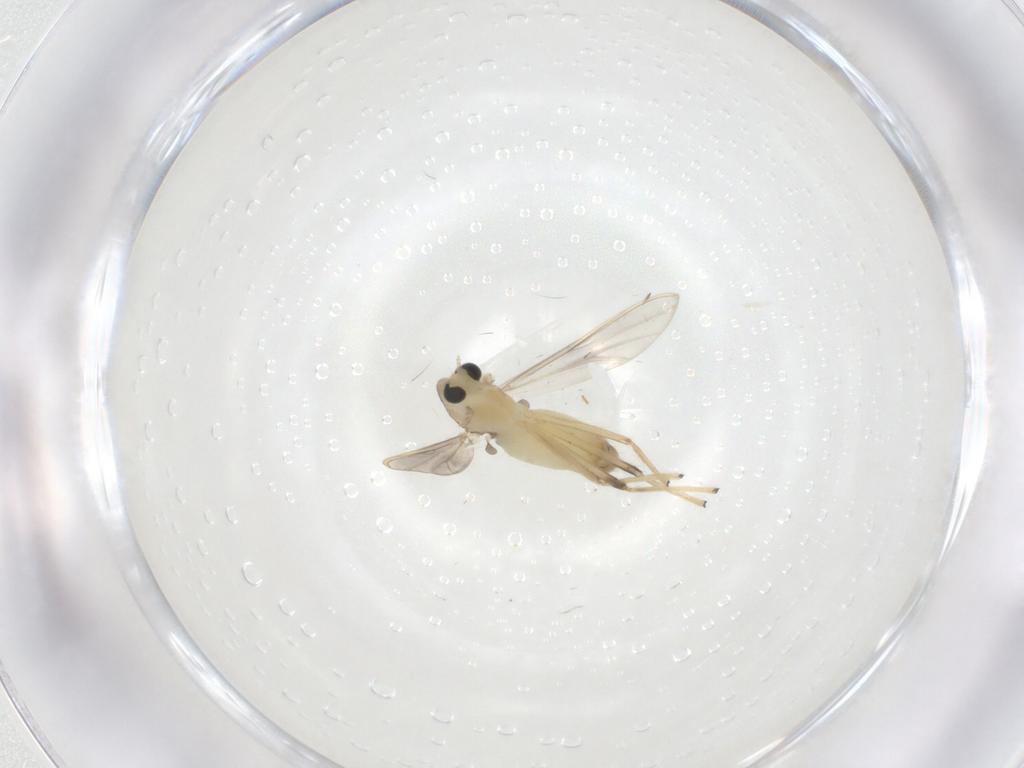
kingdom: Animalia
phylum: Arthropoda
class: Insecta
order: Diptera
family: Chironomidae
